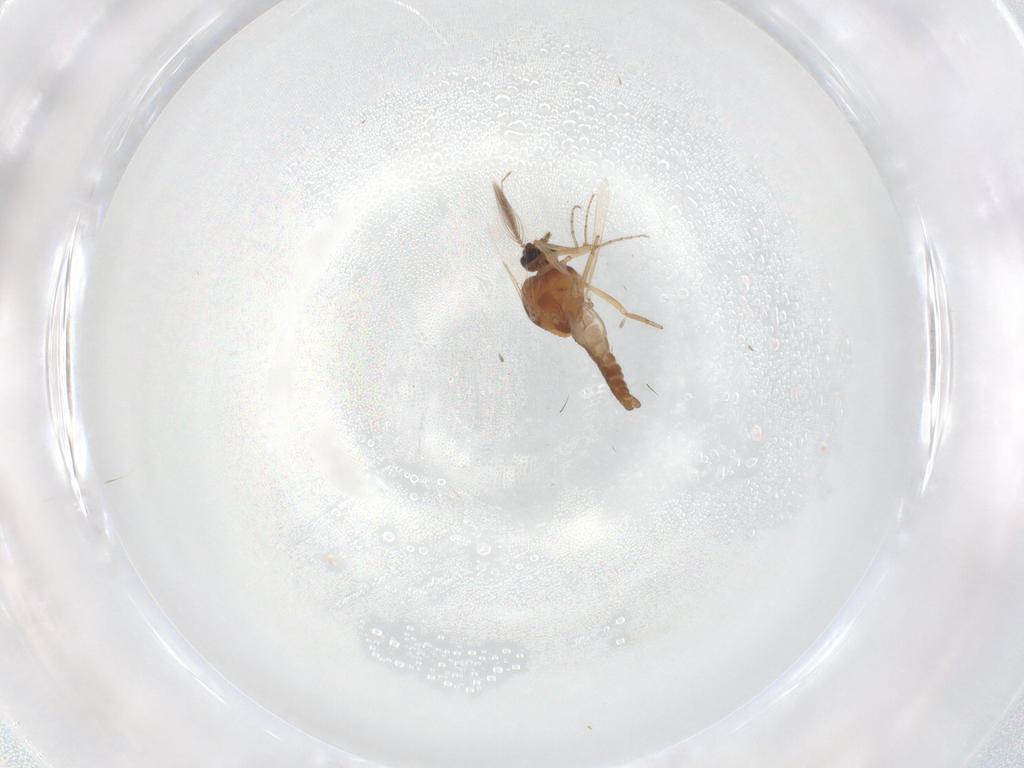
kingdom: Animalia
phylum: Arthropoda
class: Insecta
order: Diptera
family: Ceratopogonidae
